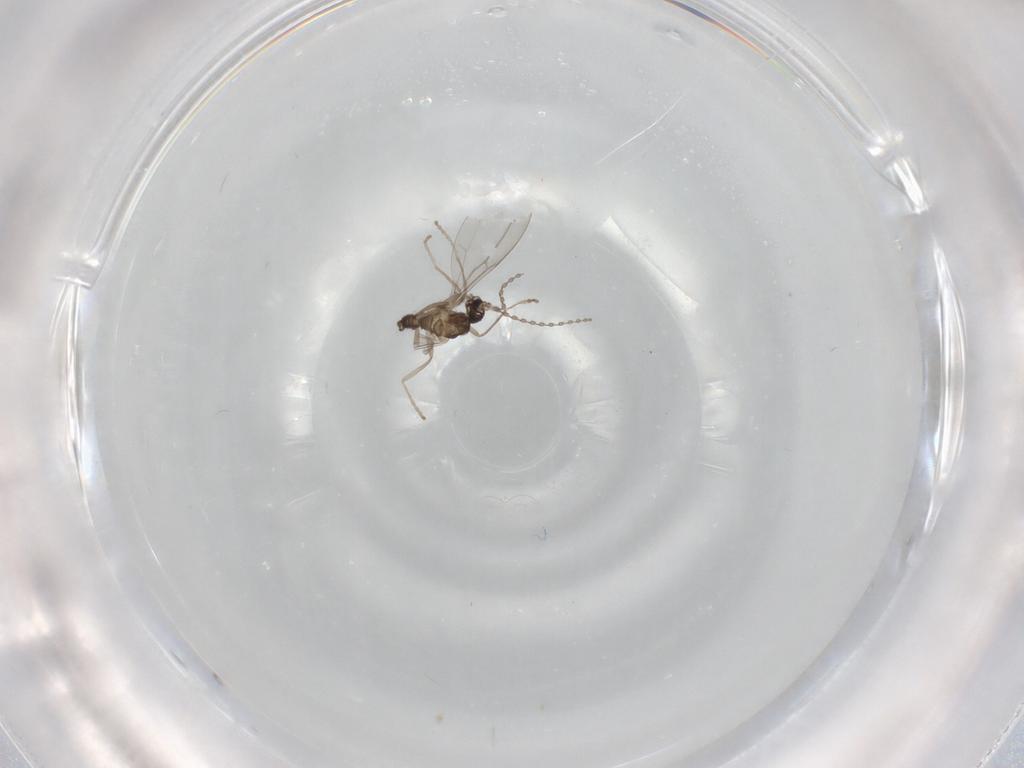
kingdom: Animalia
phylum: Arthropoda
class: Insecta
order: Diptera
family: Cecidomyiidae
